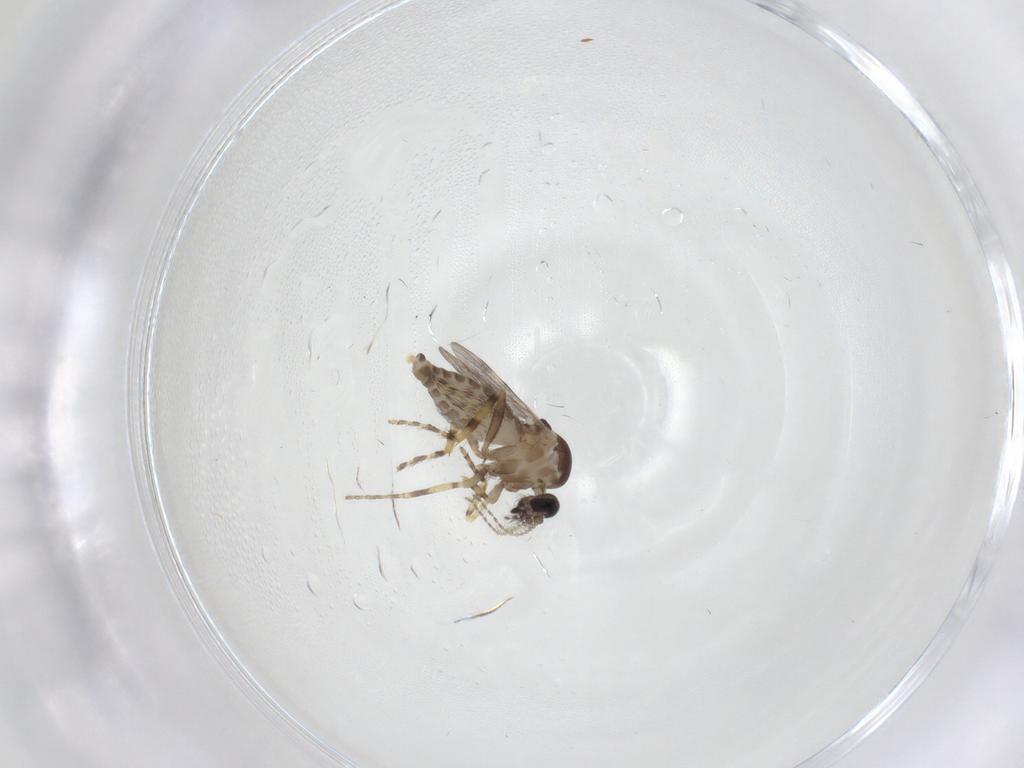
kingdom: Animalia
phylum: Arthropoda
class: Insecta
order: Diptera
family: Ceratopogonidae
